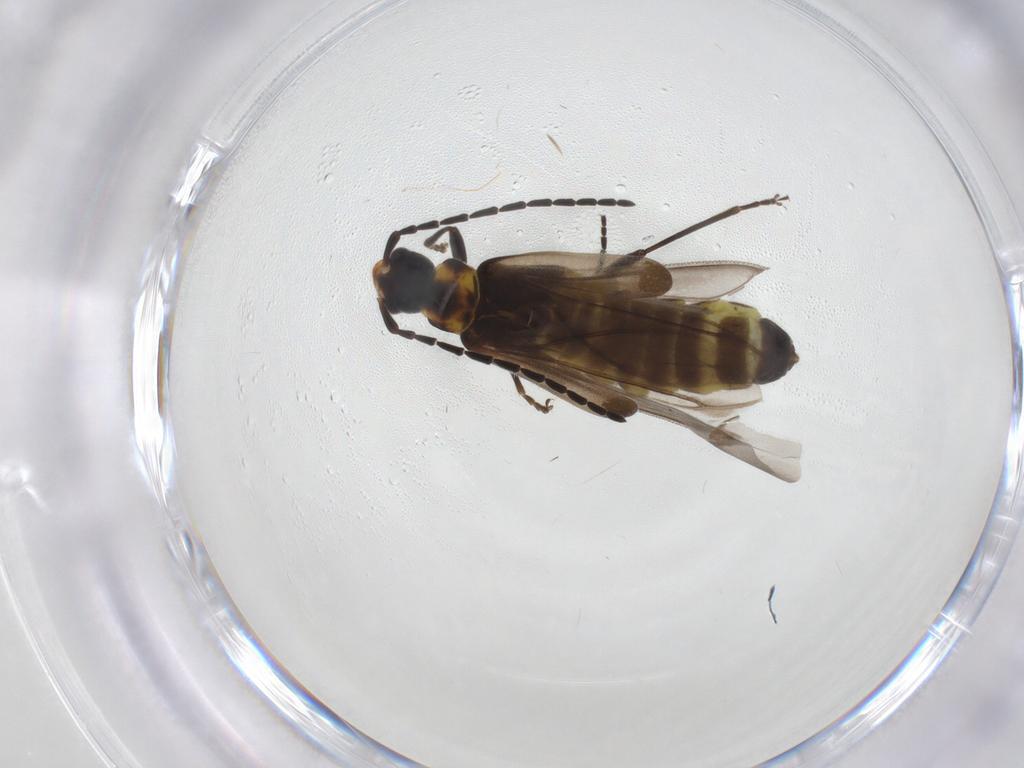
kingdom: Animalia
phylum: Arthropoda
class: Insecta
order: Coleoptera
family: Cantharidae
